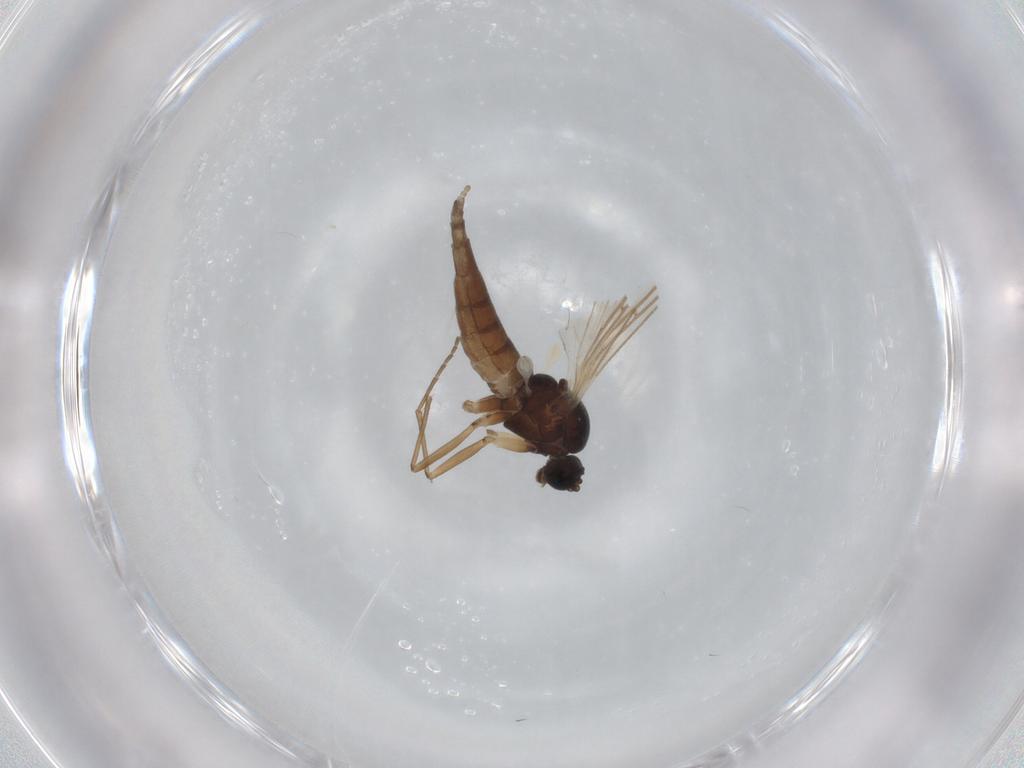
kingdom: Animalia
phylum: Arthropoda
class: Insecta
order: Diptera
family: Sciaridae
